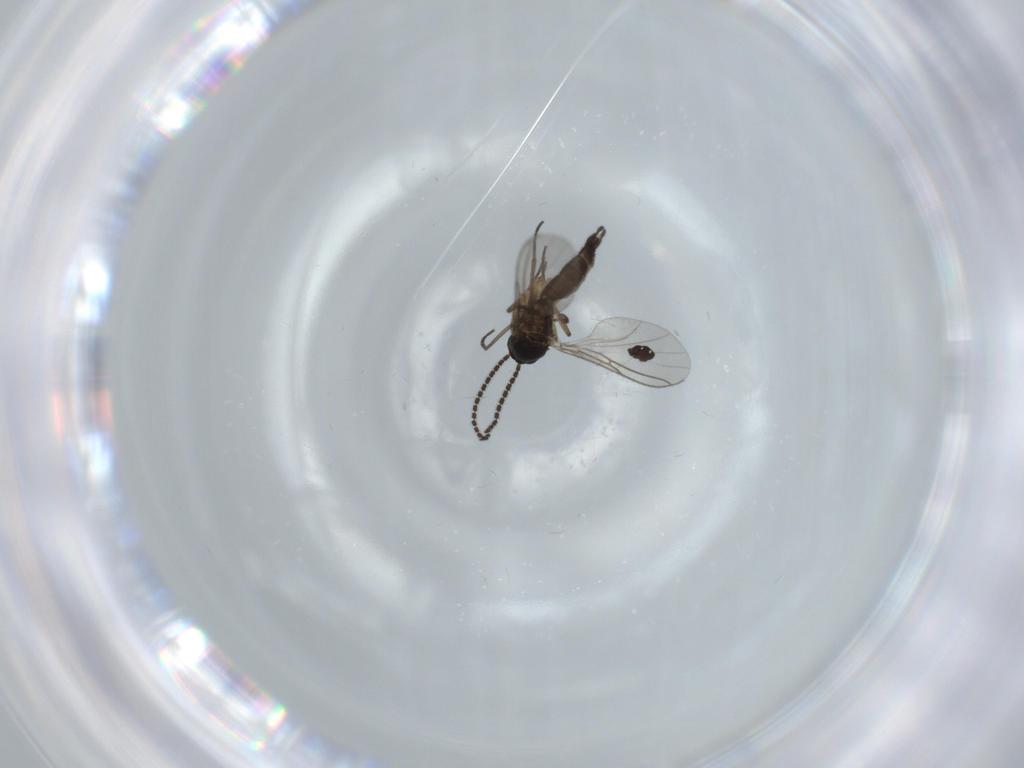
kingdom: Animalia
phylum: Arthropoda
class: Insecta
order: Diptera
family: Sciaridae
